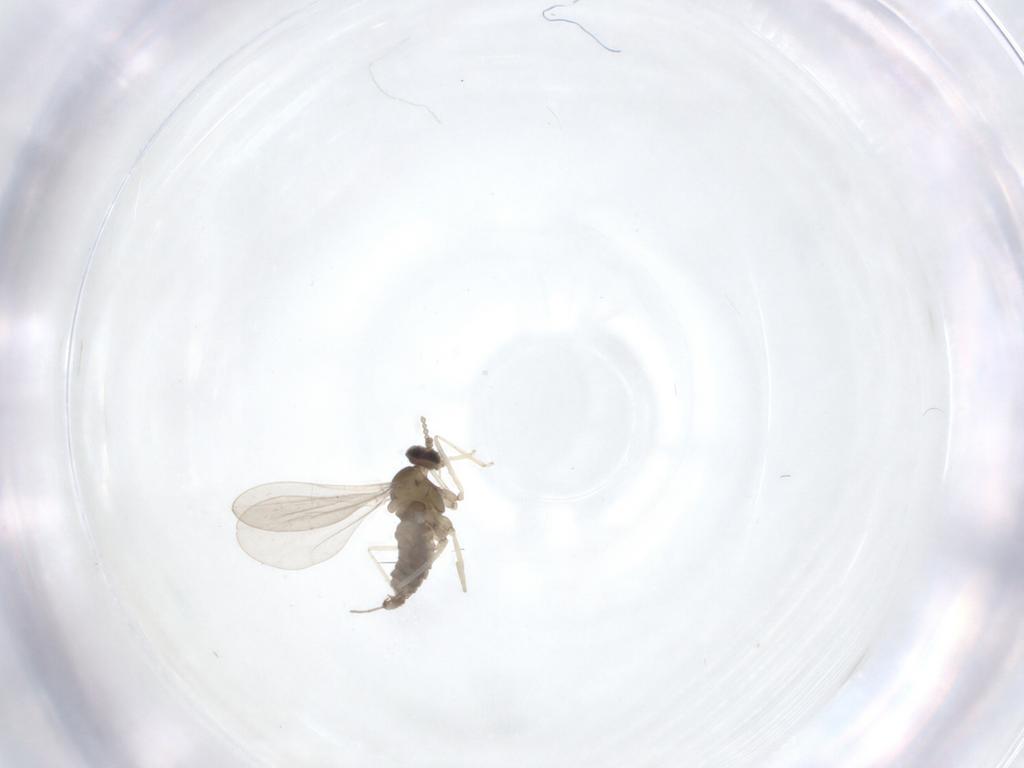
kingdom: Animalia
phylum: Arthropoda
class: Insecta
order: Diptera
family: Cecidomyiidae
